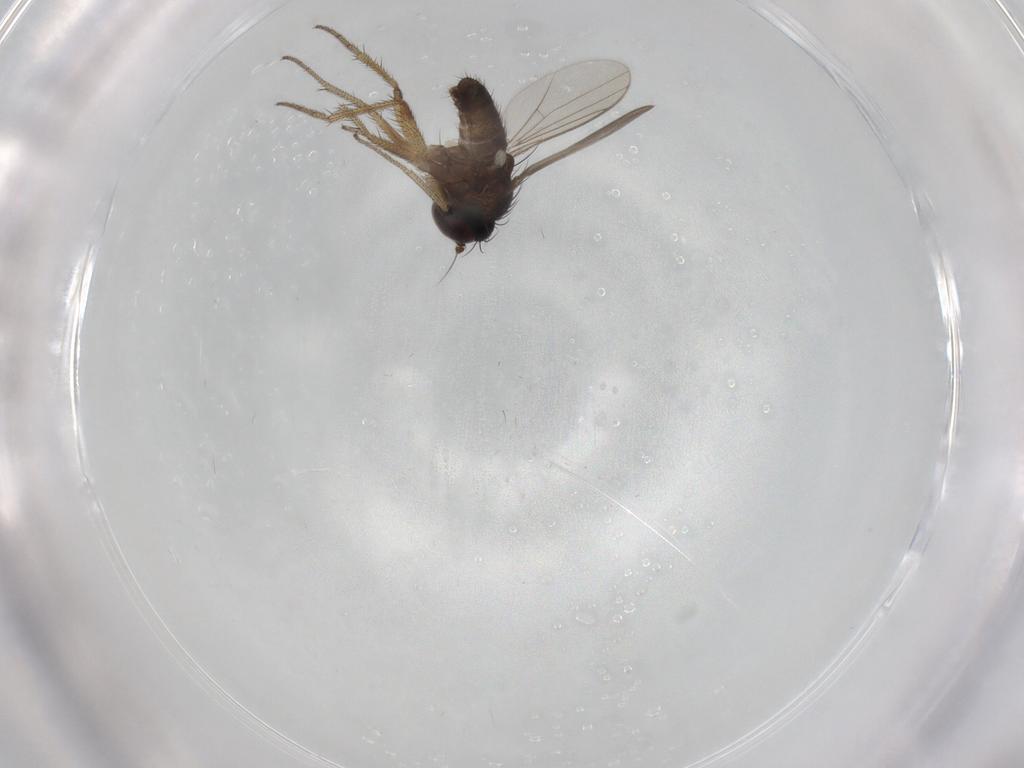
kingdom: Animalia
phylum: Arthropoda
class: Insecta
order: Diptera
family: Dolichopodidae
